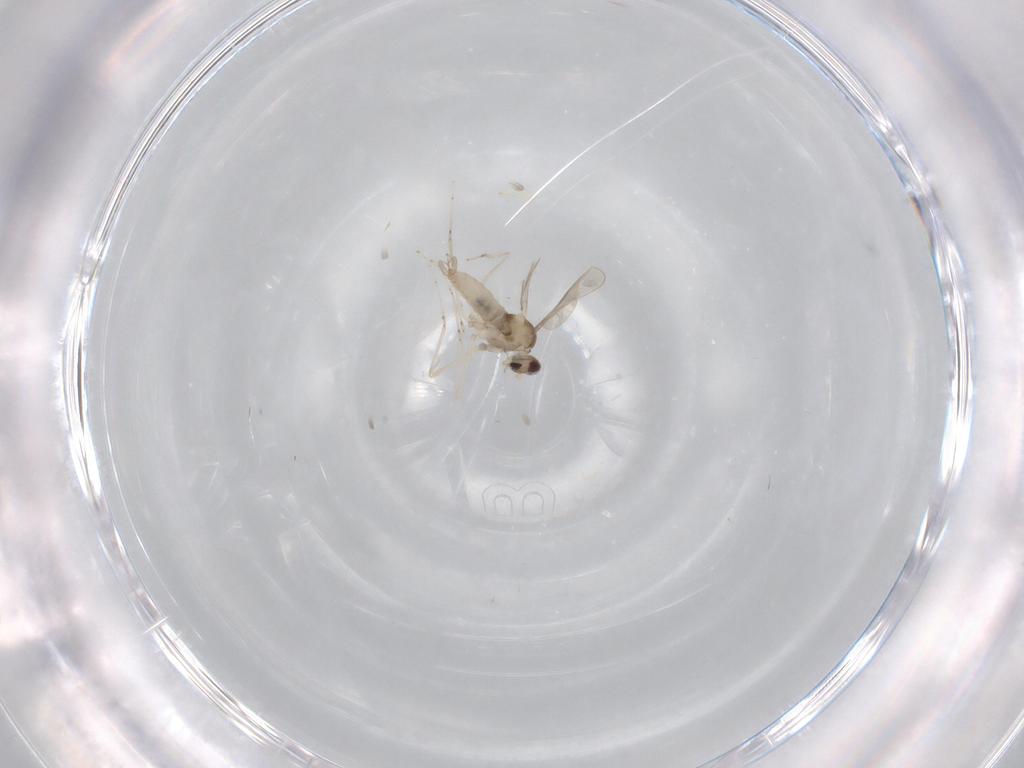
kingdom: Animalia
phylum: Arthropoda
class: Insecta
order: Diptera
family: Cecidomyiidae
